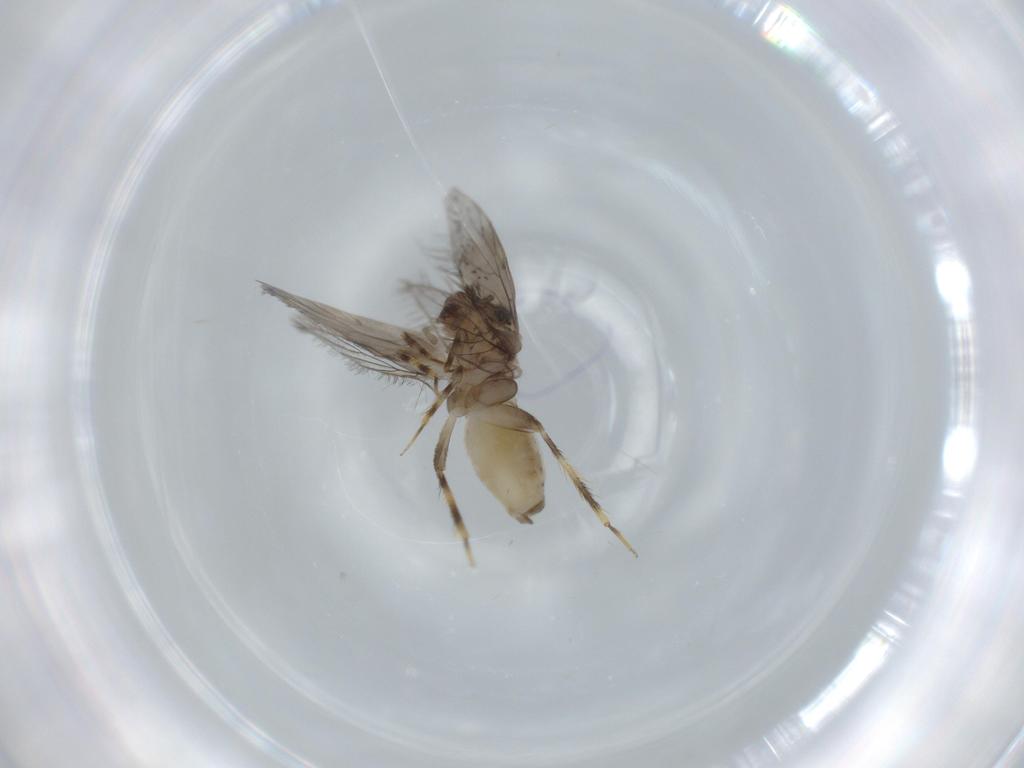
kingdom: Animalia
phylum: Arthropoda
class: Insecta
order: Psocodea
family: Lepidopsocidae
